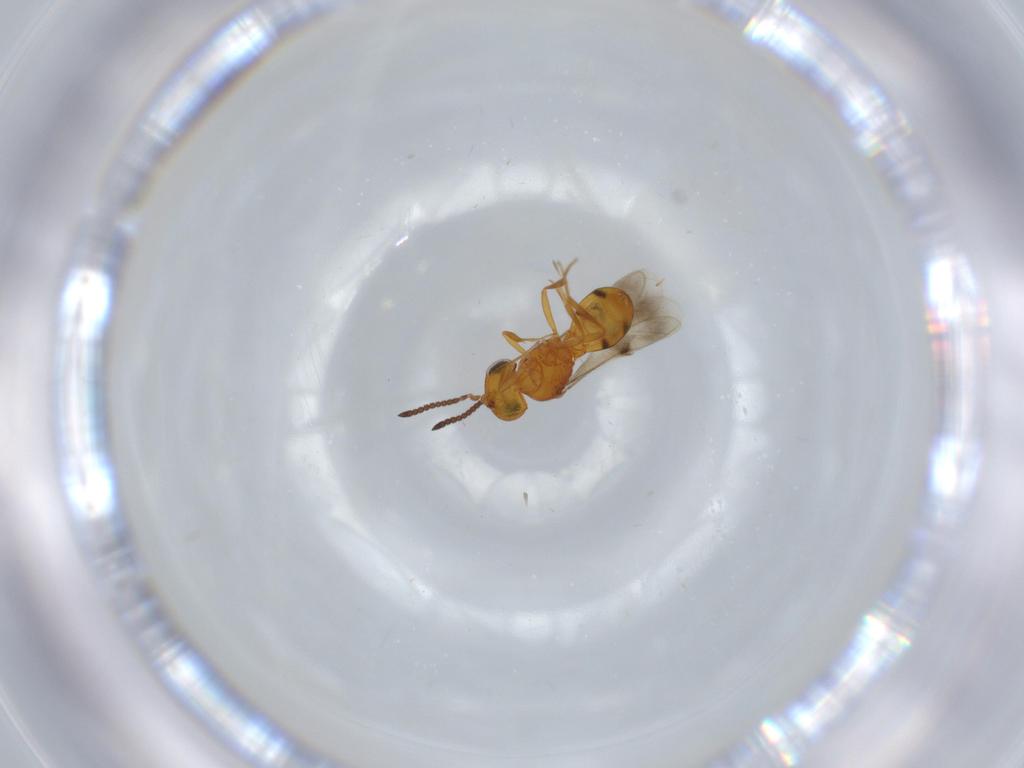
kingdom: Animalia
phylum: Arthropoda
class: Insecta
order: Hymenoptera
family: Scelionidae
